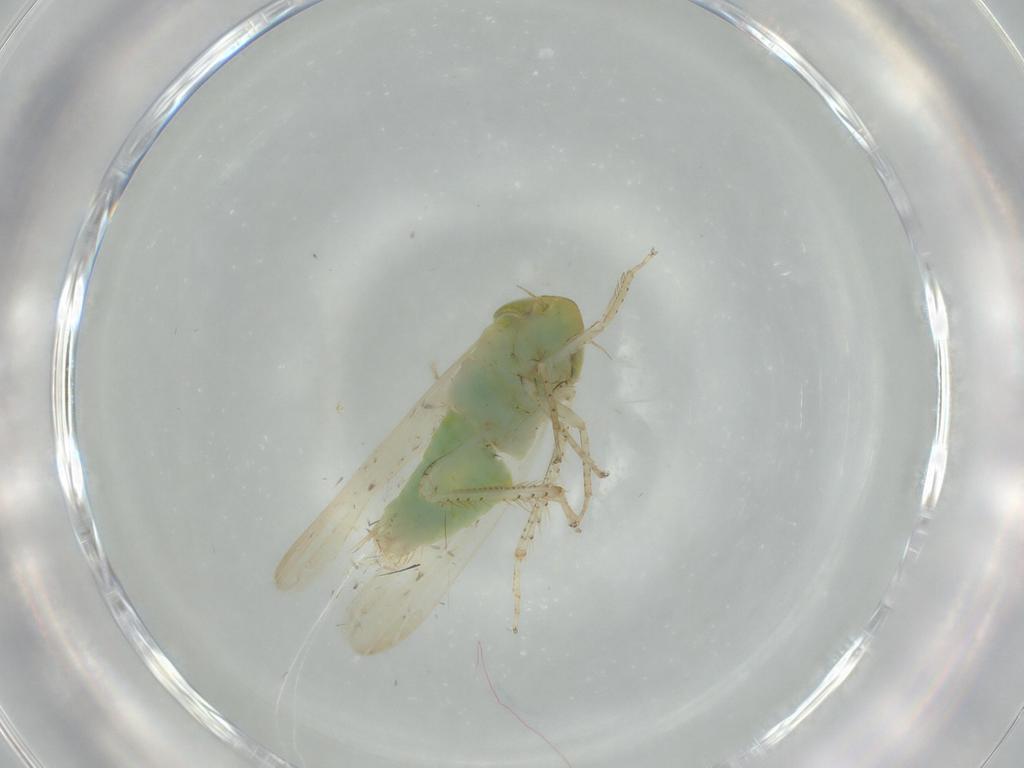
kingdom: Animalia
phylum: Arthropoda
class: Insecta
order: Hemiptera
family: Cicadellidae
